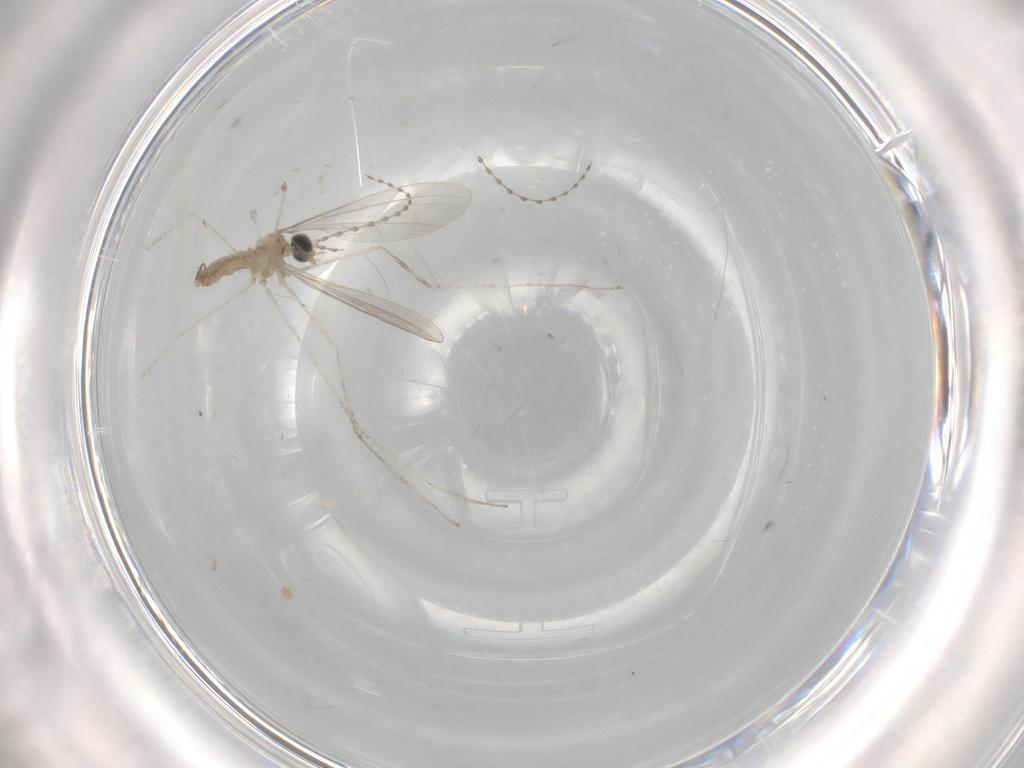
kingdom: Animalia
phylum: Arthropoda
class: Insecta
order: Diptera
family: Cecidomyiidae
